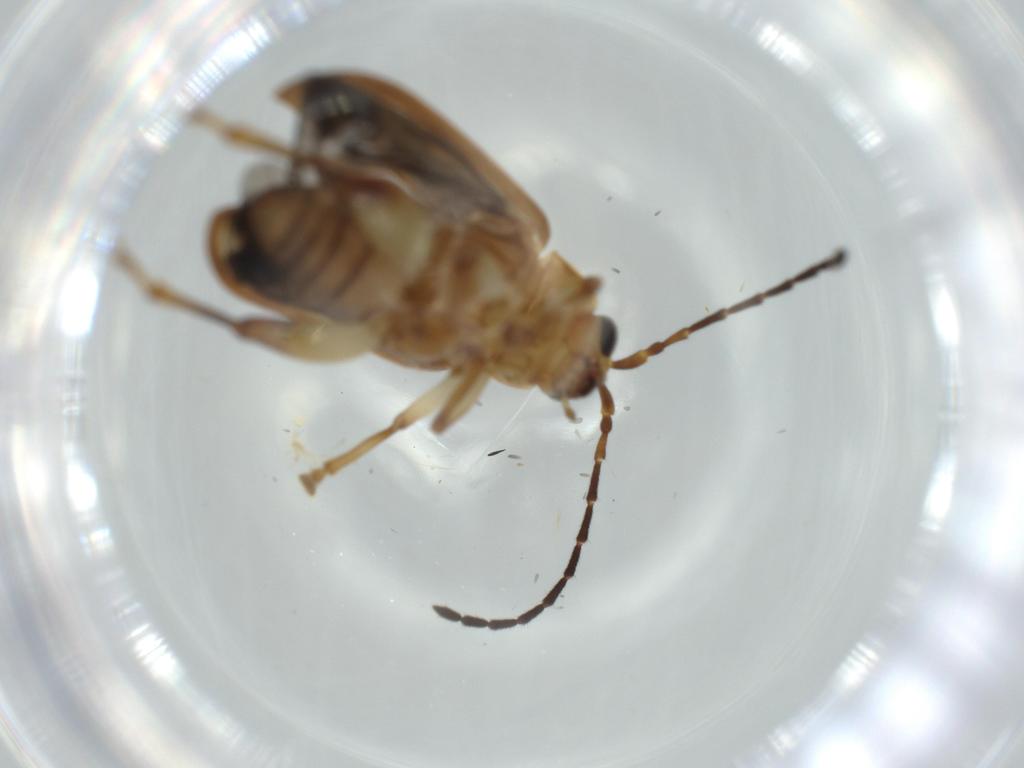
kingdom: Animalia
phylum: Arthropoda
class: Insecta
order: Coleoptera
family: Chrysomelidae
